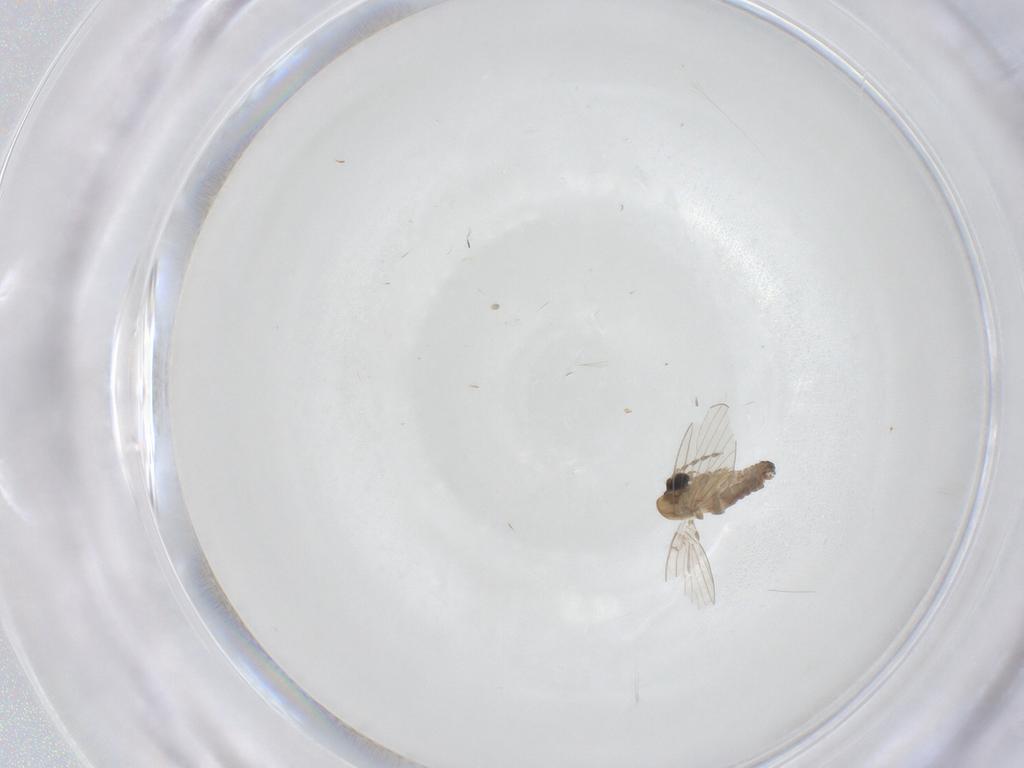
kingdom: Animalia
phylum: Arthropoda
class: Insecta
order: Diptera
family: Psychodidae
